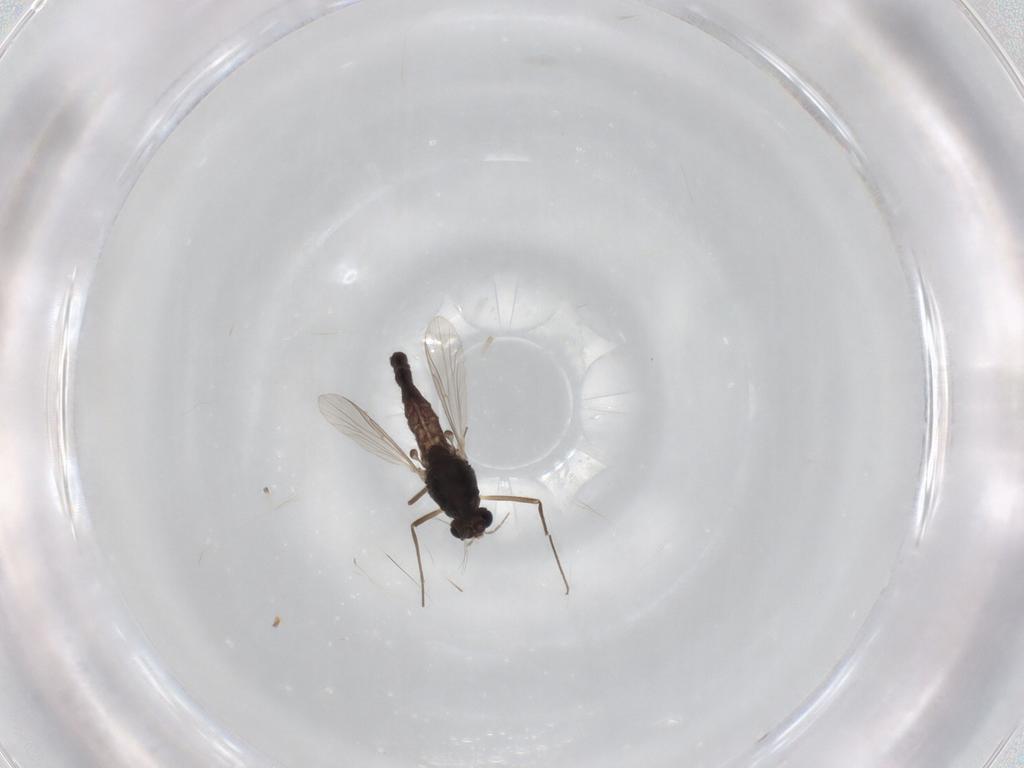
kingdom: Animalia
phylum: Arthropoda
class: Insecta
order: Diptera
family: Chironomidae
